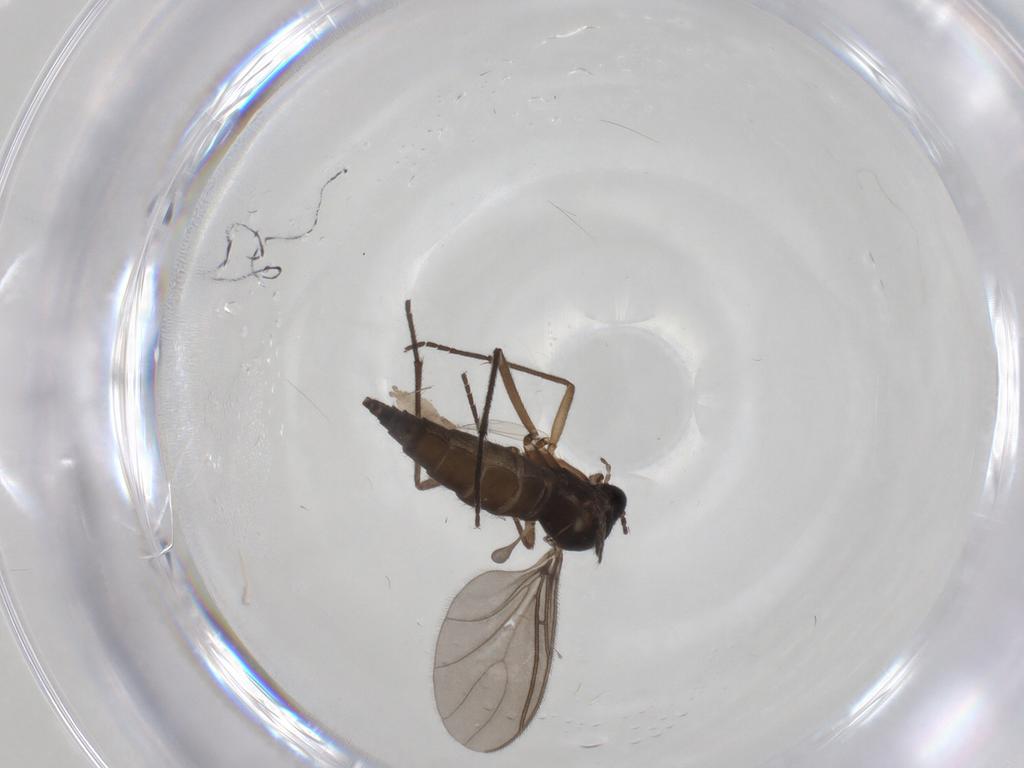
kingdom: Animalia
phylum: Arthropoda
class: Insecta
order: Diptera
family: Sciaridae
